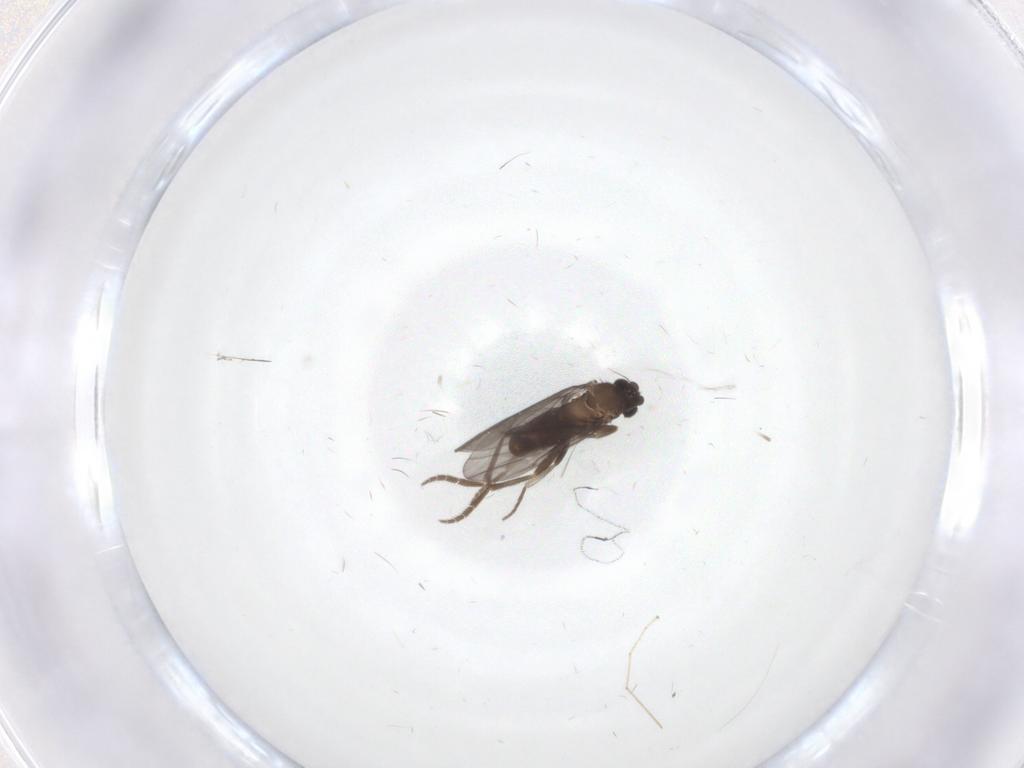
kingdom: Animalia
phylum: Arthropoda
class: Insecta
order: Diptera
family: Phoridae
